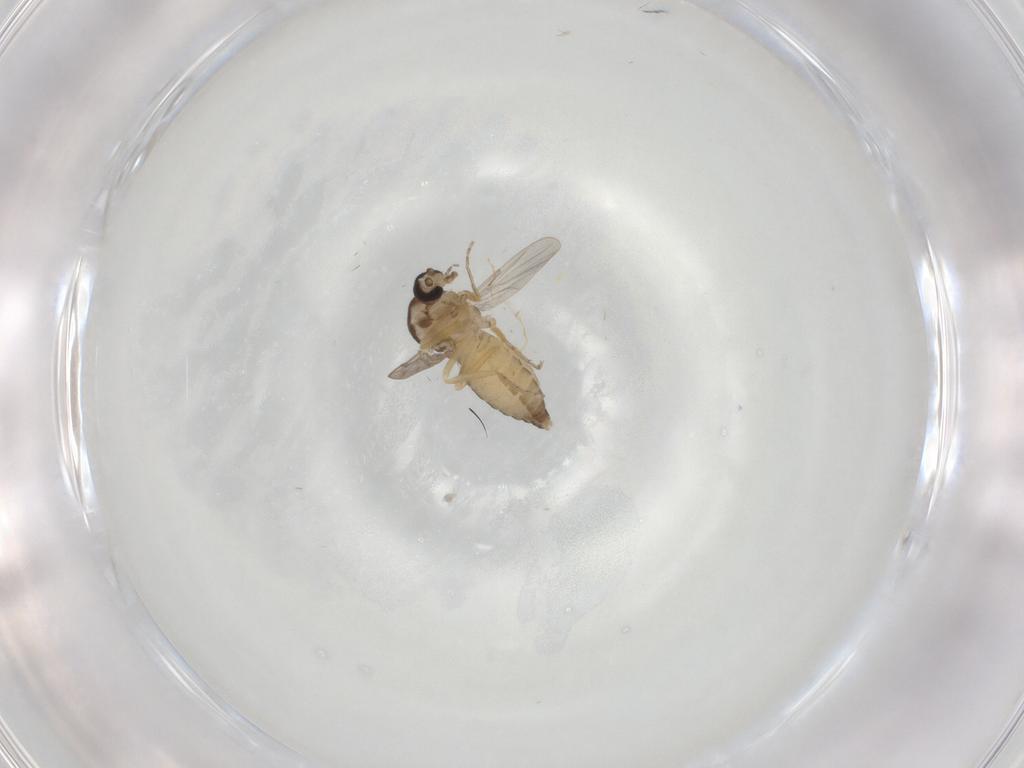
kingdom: Animalia
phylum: Arthropoda
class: Insecta
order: Diptera
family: Ceratopogonidae
